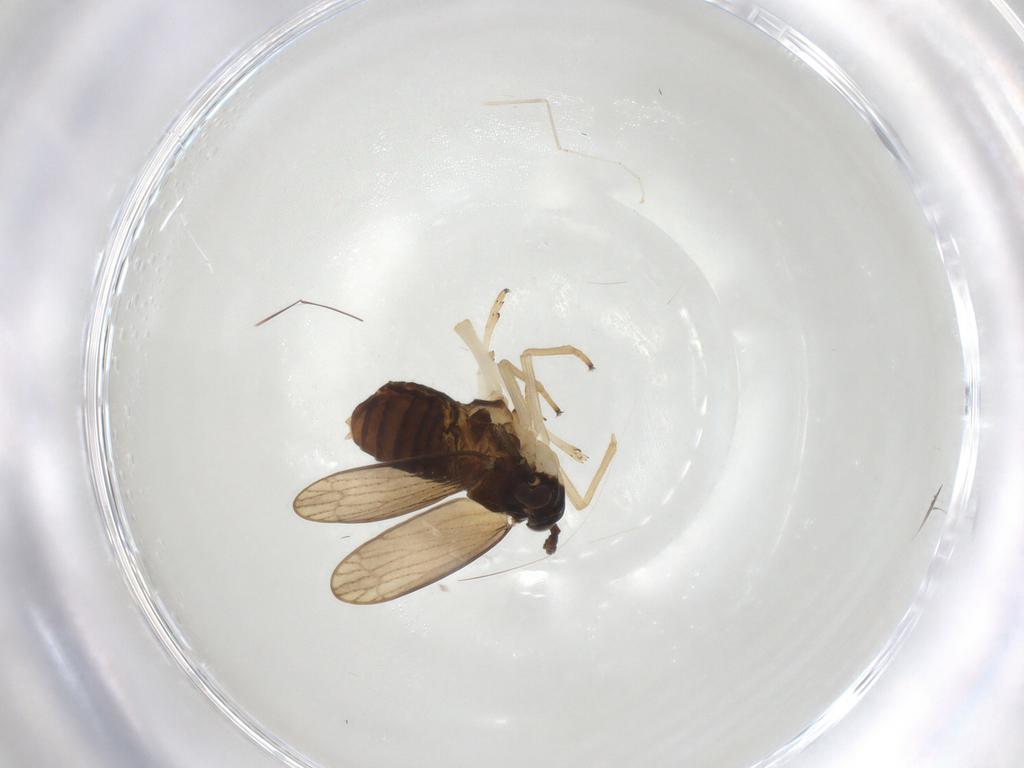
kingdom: Animalia
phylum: Arthropoda
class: Insecta
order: Hemiptera
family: Delphacidae
